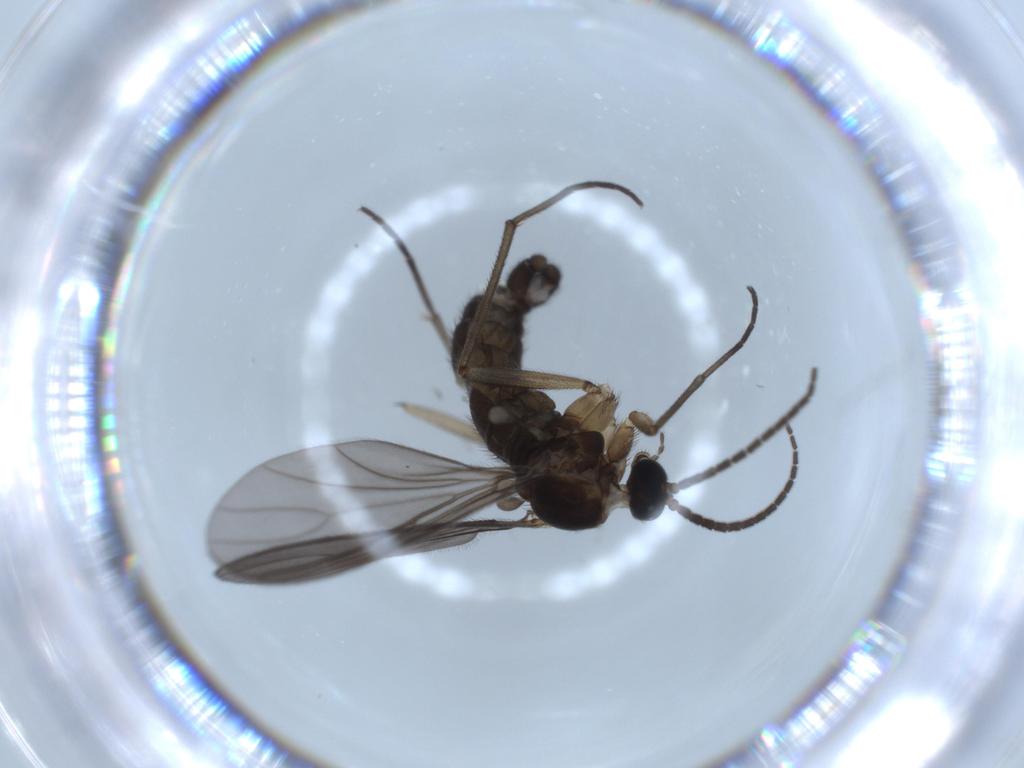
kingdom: Animalia
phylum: Arthropoda
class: Insecta
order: Diptera
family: Sciaridae
